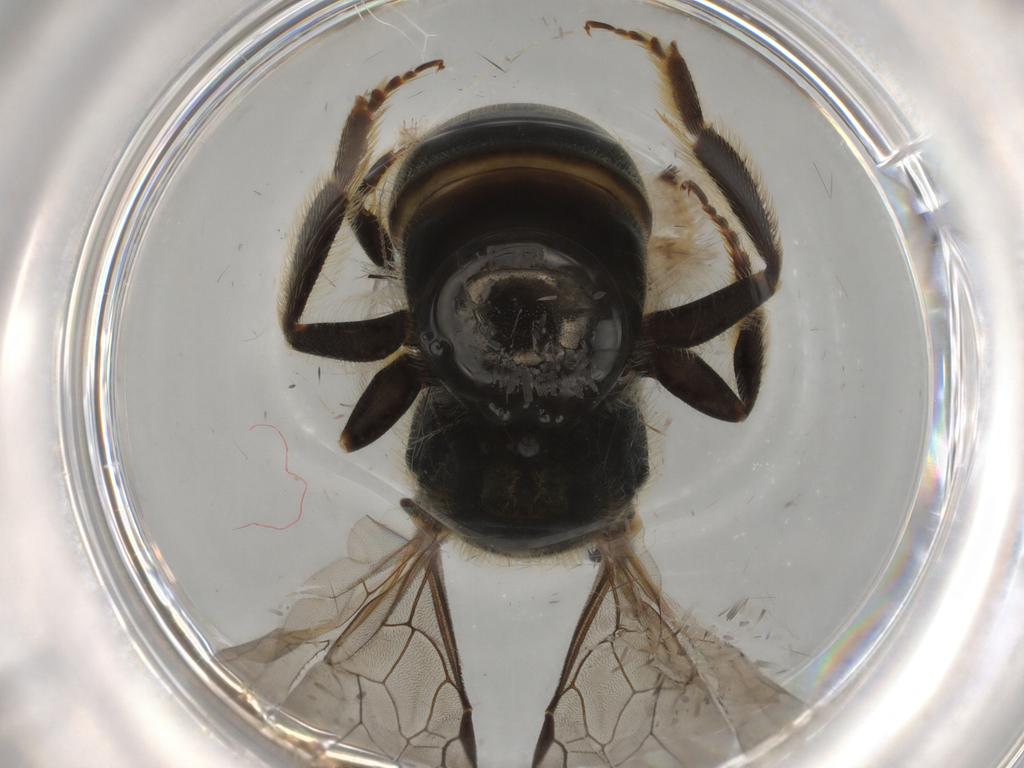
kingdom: Animalia
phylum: Arthropoda
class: Insecta
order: Hymenoptera
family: Halictidae
